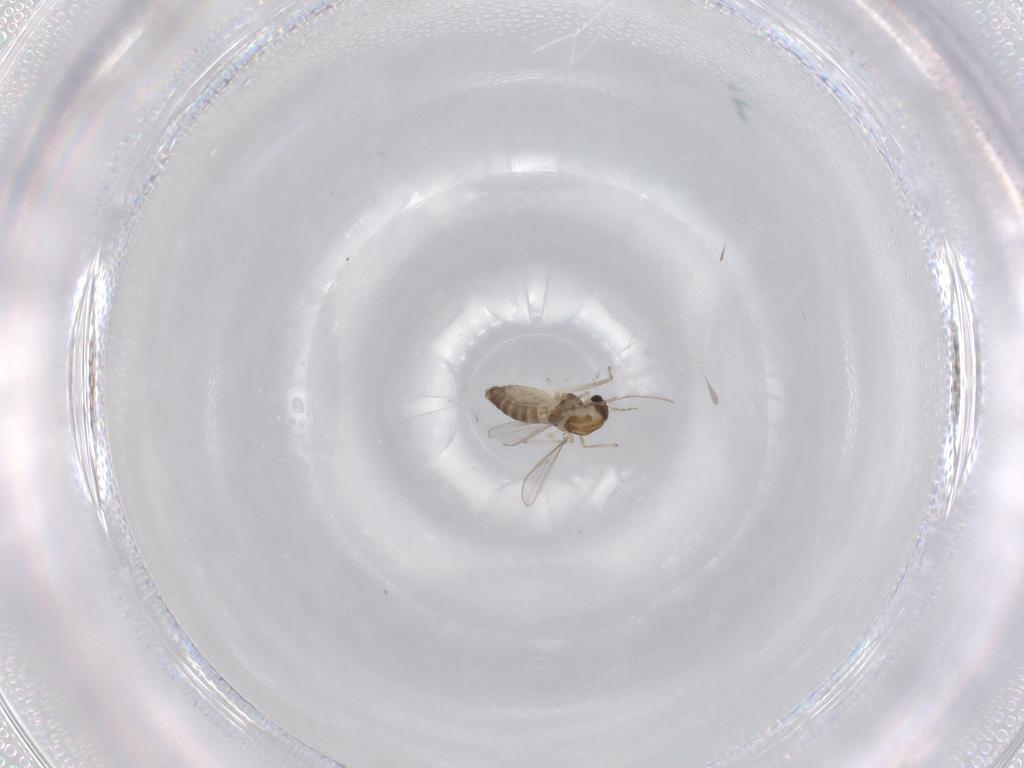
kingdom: Animalia
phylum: Arthropoda
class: Insecta
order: Diptera
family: Chironomidae
